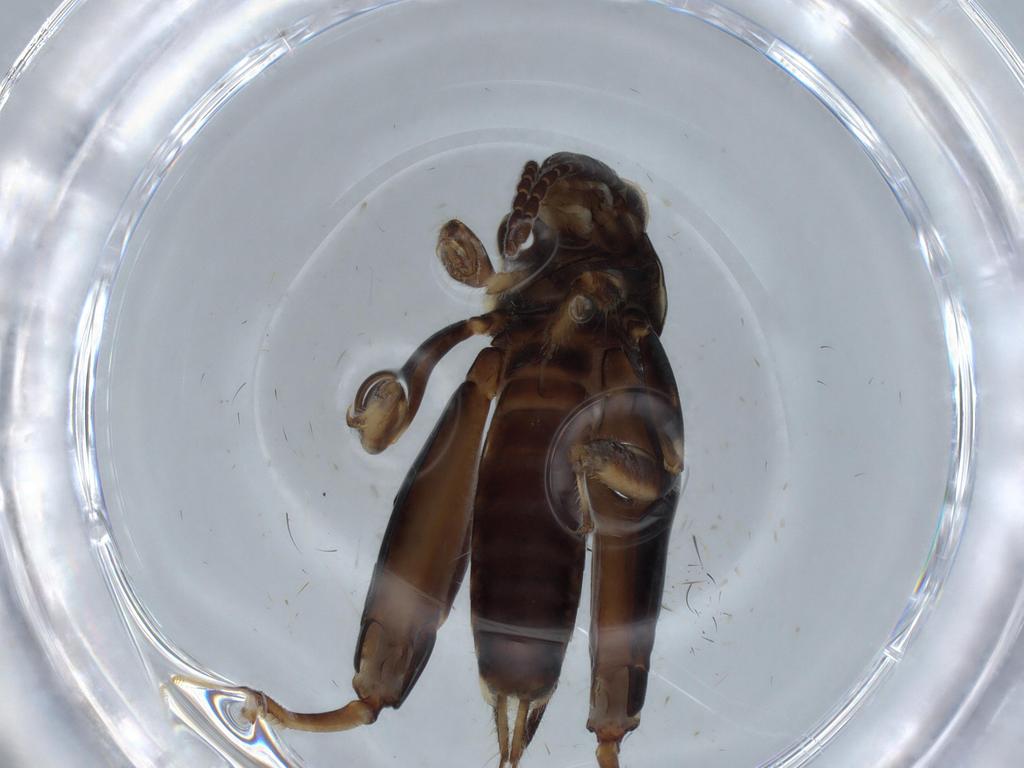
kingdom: Animalia
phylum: Arthropoda
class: Insecta
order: Orthoptera
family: Tridactylidae
